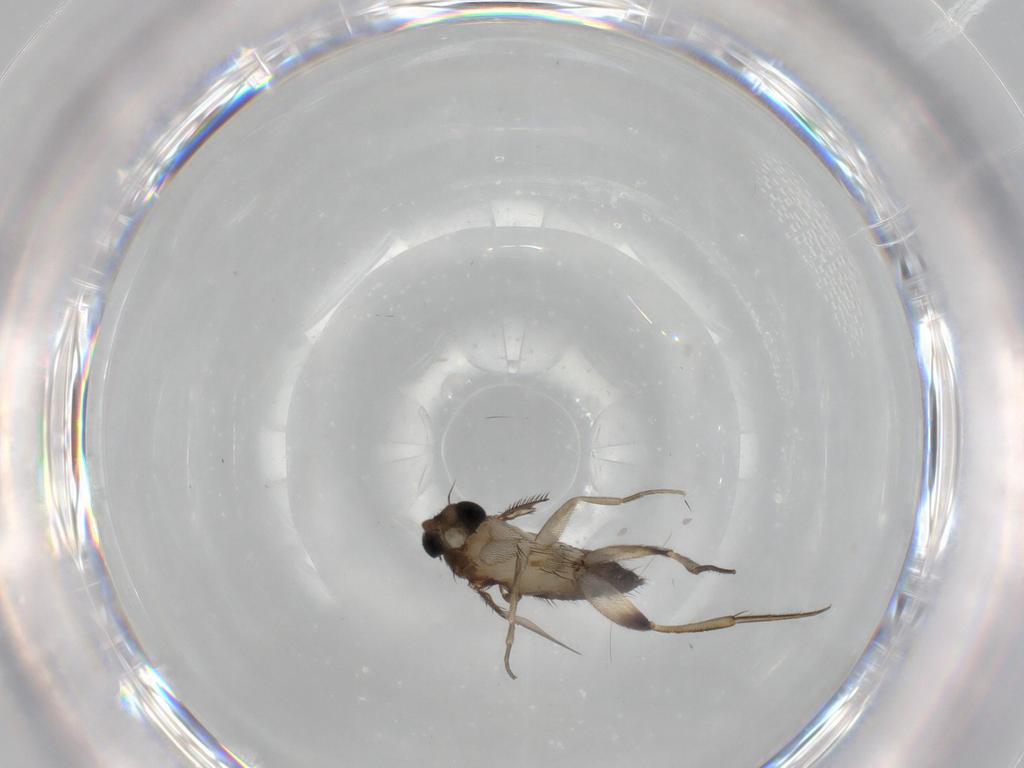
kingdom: Animalia
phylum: Arthropoda
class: Insecta
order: Diptera
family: Phoridae
